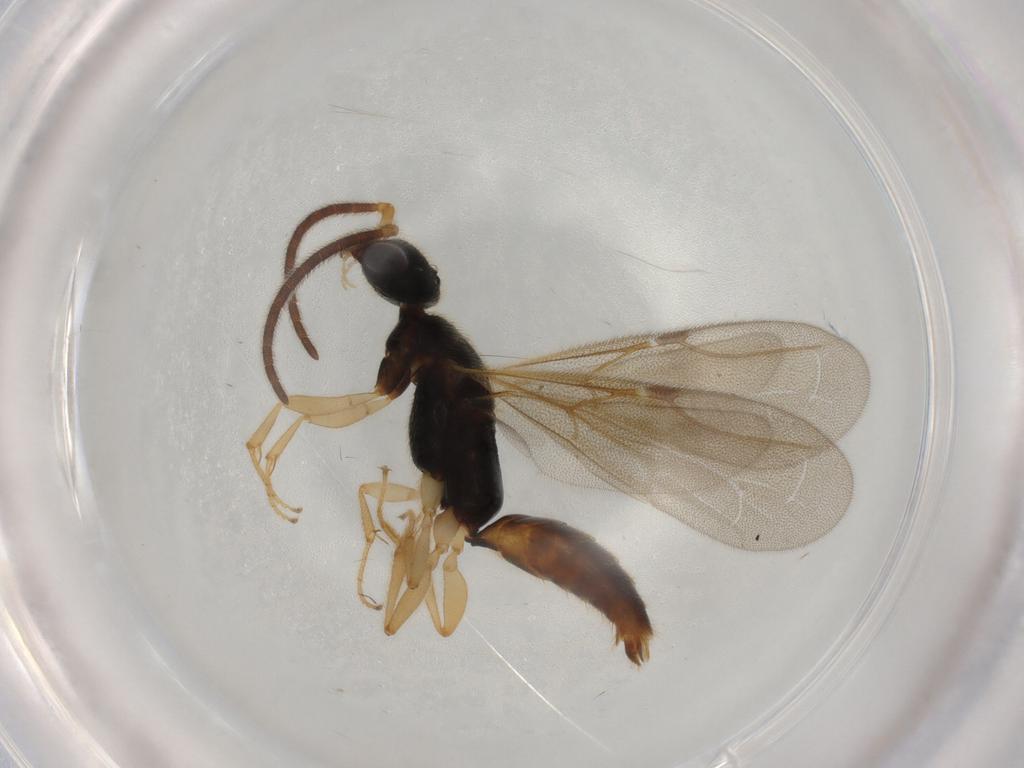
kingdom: Animalia
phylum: Arthropoda
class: Insecta
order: Hymenoptera
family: Bethylidae
